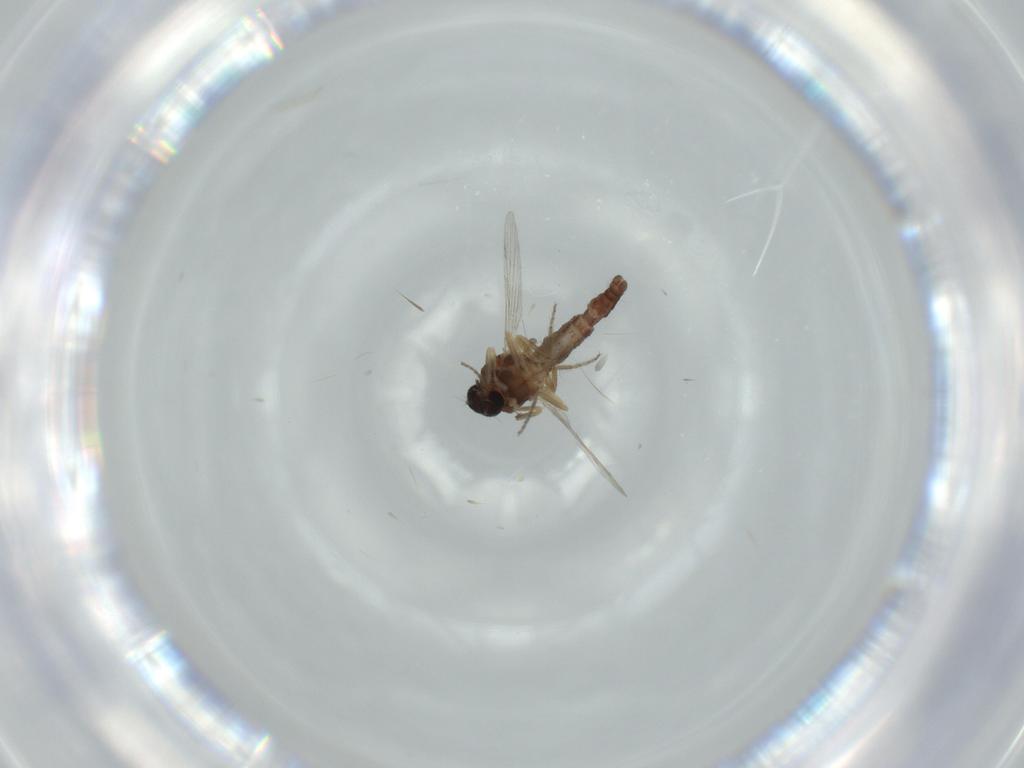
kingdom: Animalia
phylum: Arthropoda
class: Insecta
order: Diptera
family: Ceratopogonidae
